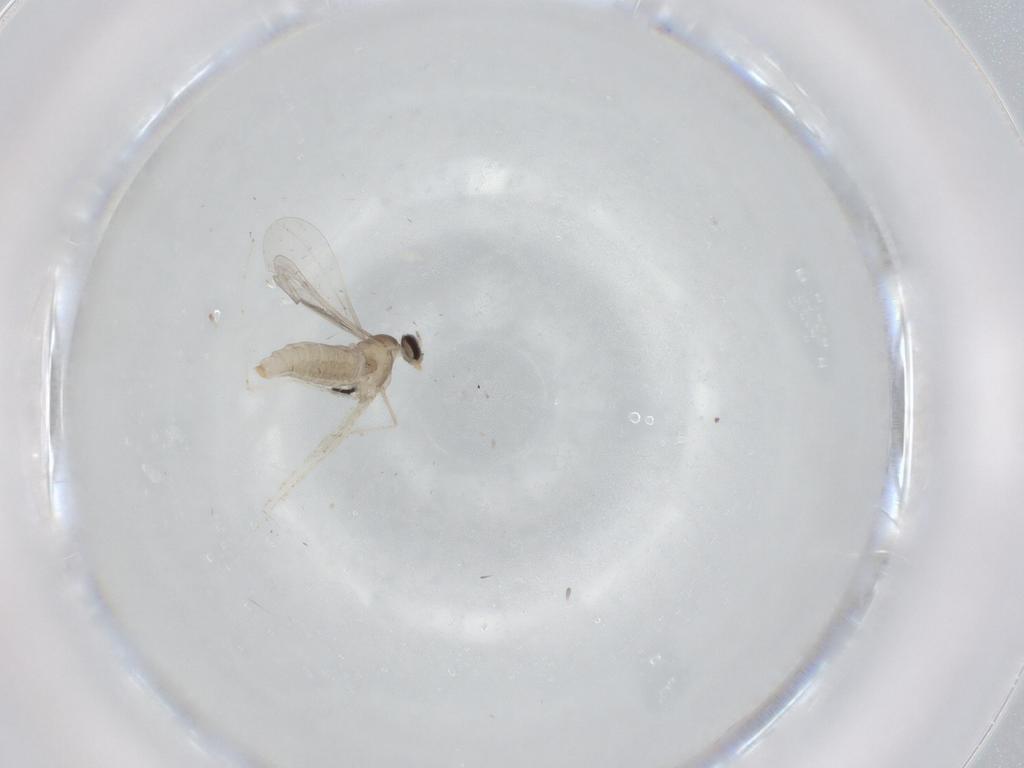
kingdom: Animalia
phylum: Arthropoda
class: Insecta
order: Diptera
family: Cecidomyiidae
